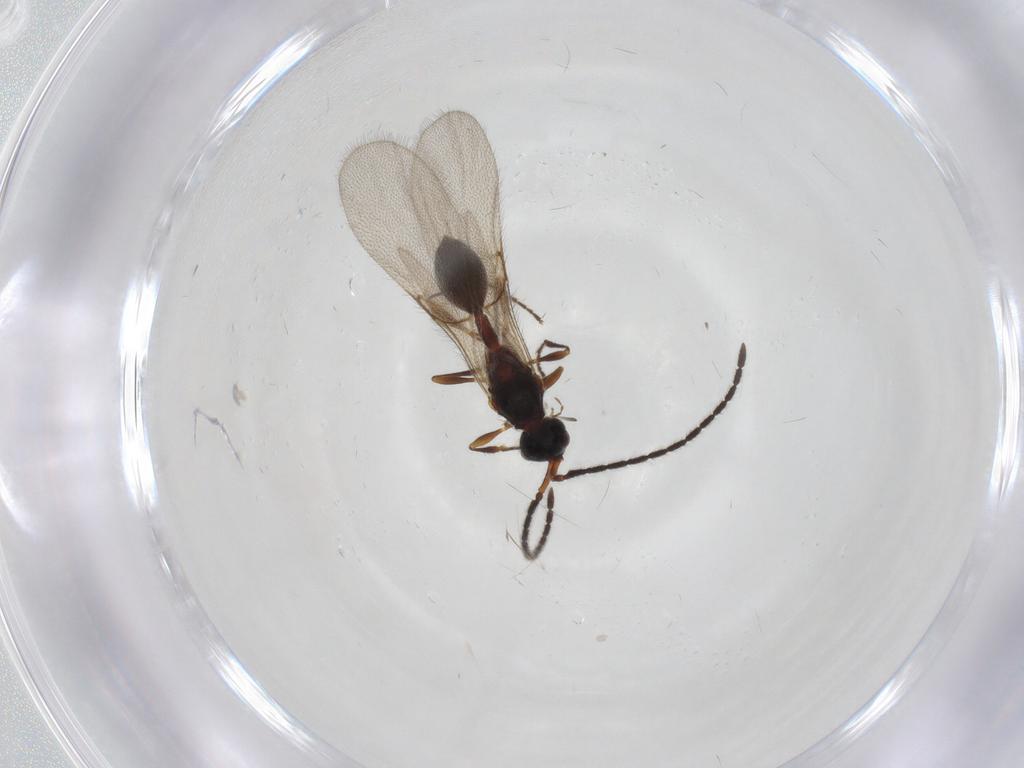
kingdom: Animalia
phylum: Arthropoda
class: Insecta
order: Hymenoptera
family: Diapriidae
